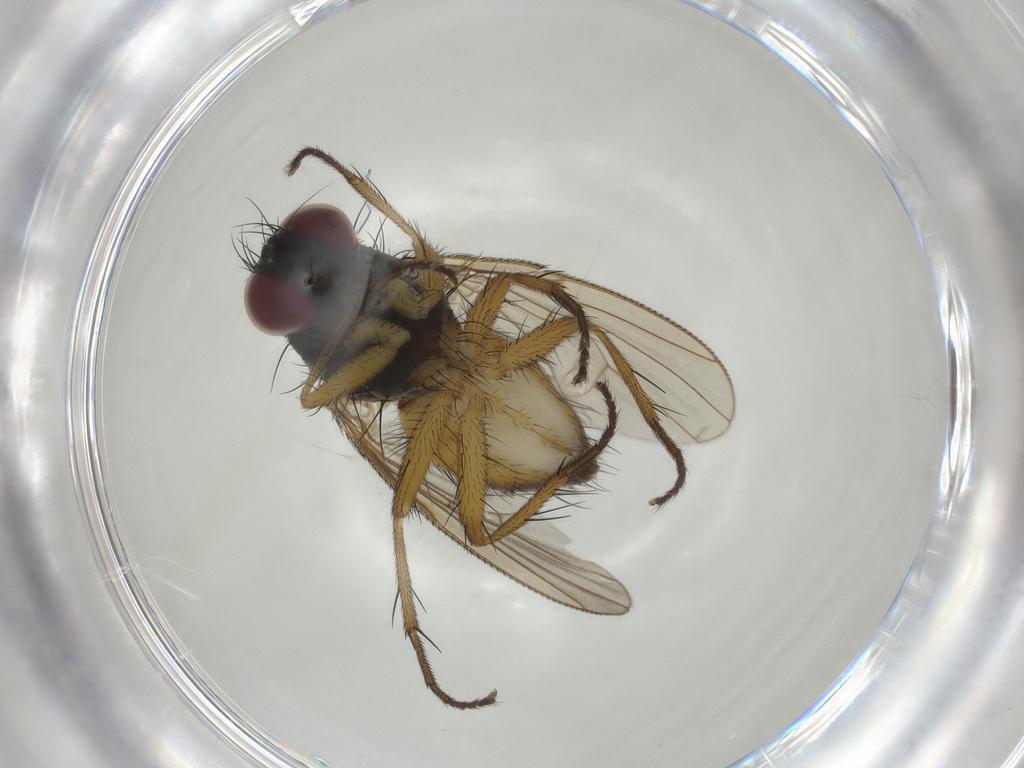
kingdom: Animalia
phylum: Arthropoda
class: Insecta
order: Diptera
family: Muscidae
